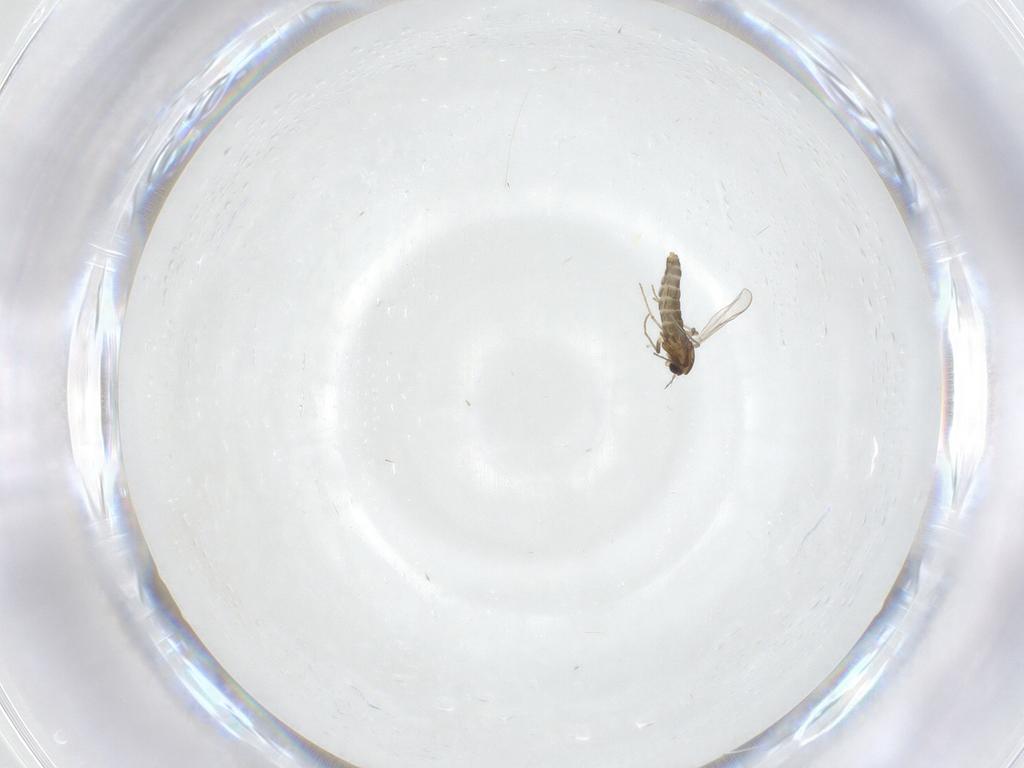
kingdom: Animalia
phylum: Arthropoda
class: Insecta
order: Diptera
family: Chironomidae
